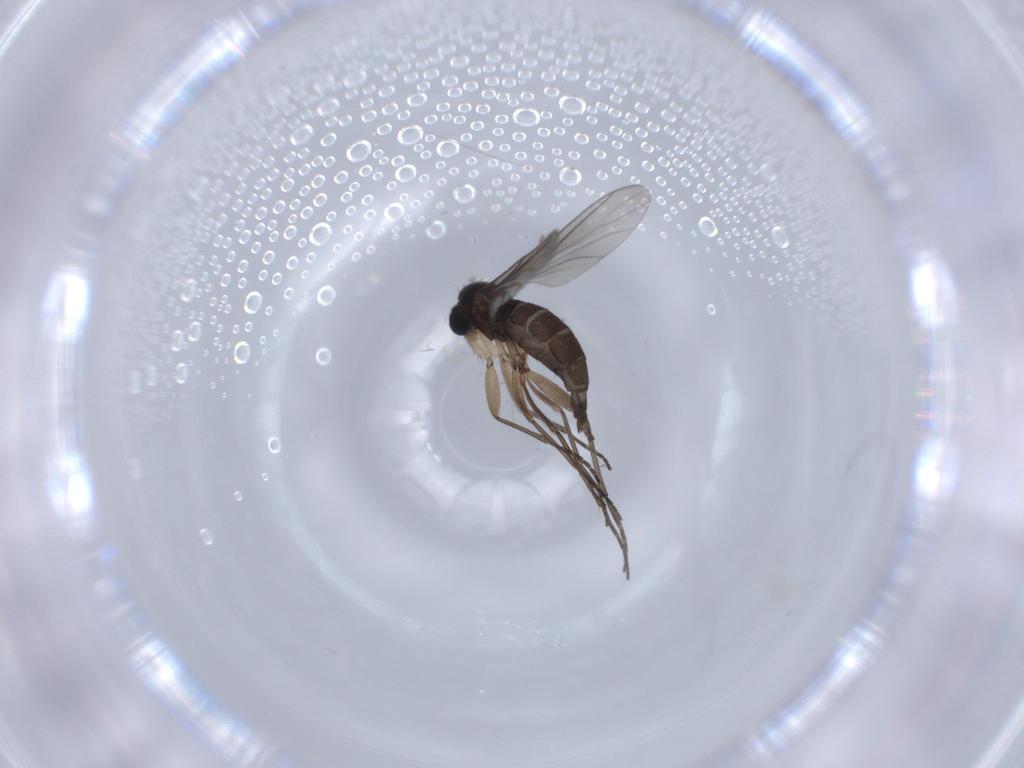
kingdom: Animalia
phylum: Arthropoda
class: Insecta
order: Diptera
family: Sciaridae
